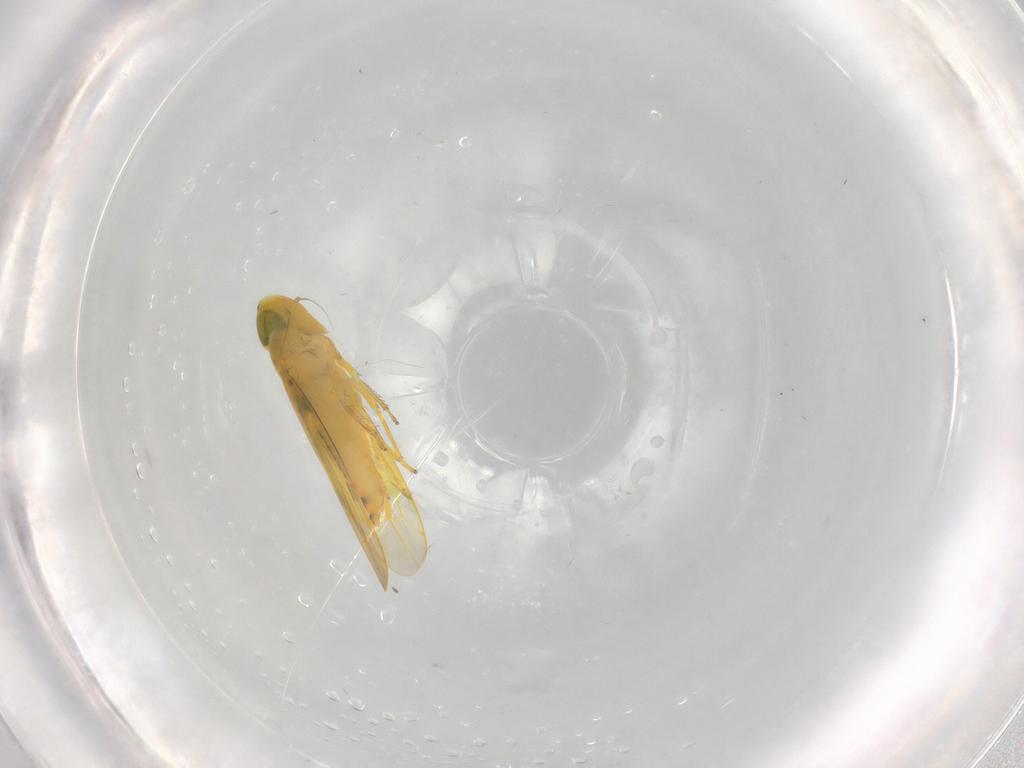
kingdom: Animalia
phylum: Arthropoda
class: Insecta
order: Hemiptera
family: Cicadellidae
